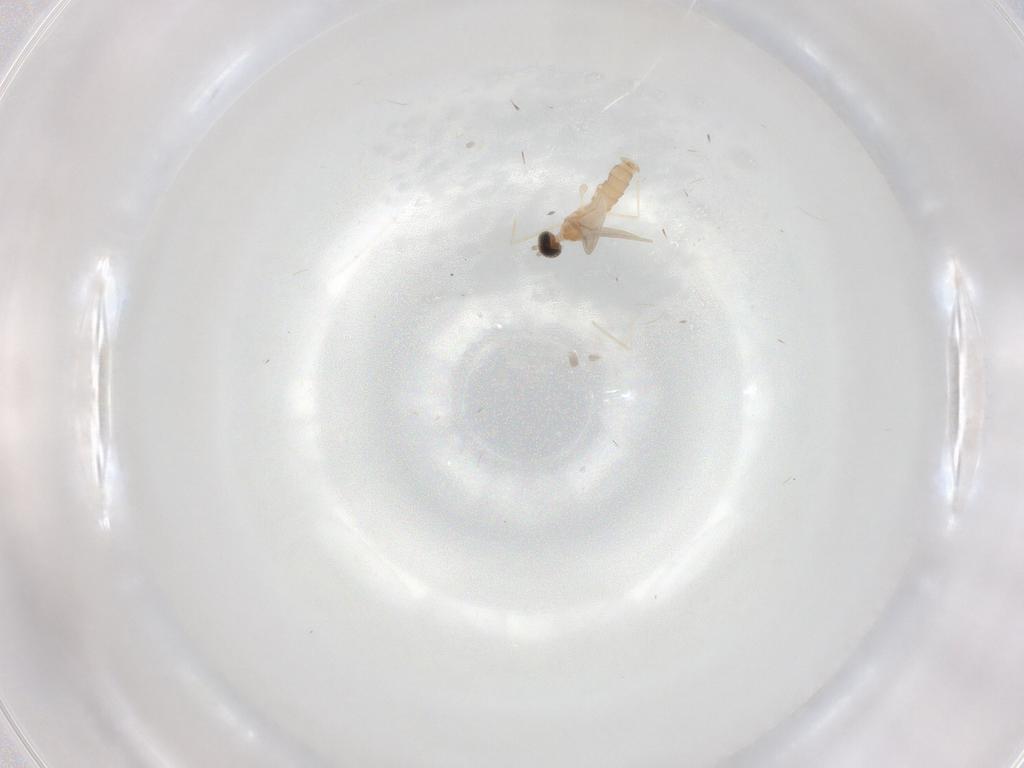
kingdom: Animalia
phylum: Arthropoda
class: Insecta
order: Diptera
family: Cecidomyiidae
